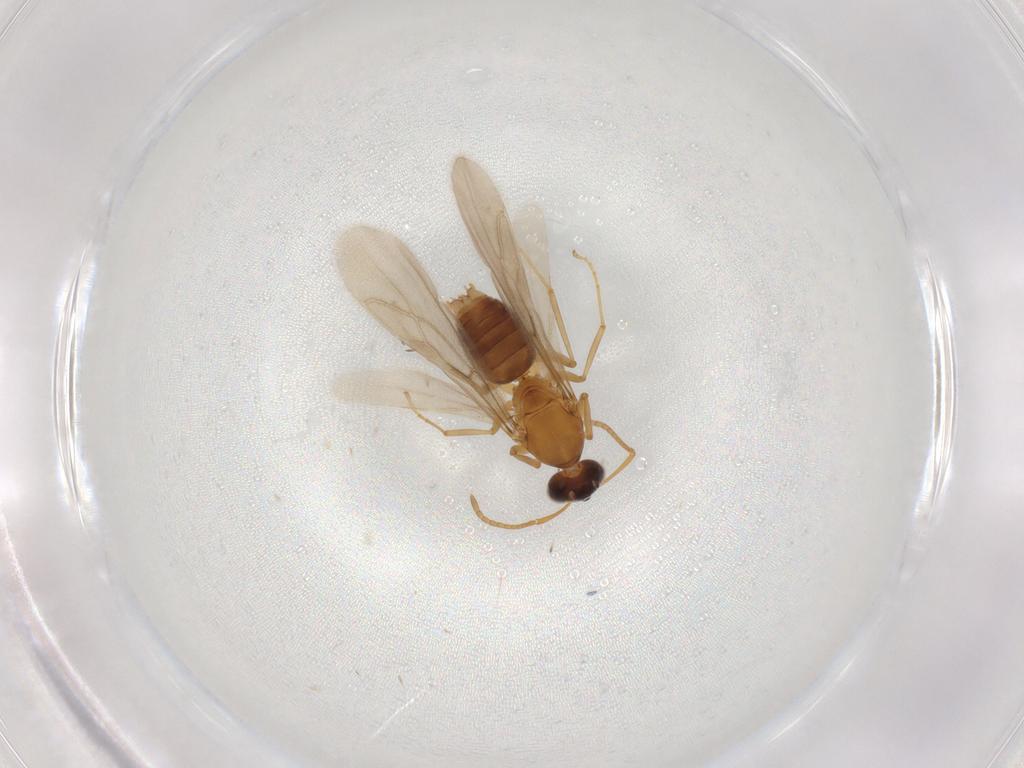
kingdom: Animalia
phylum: Arthropoda
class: Insecta
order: Hymenoptera
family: Formicidae
